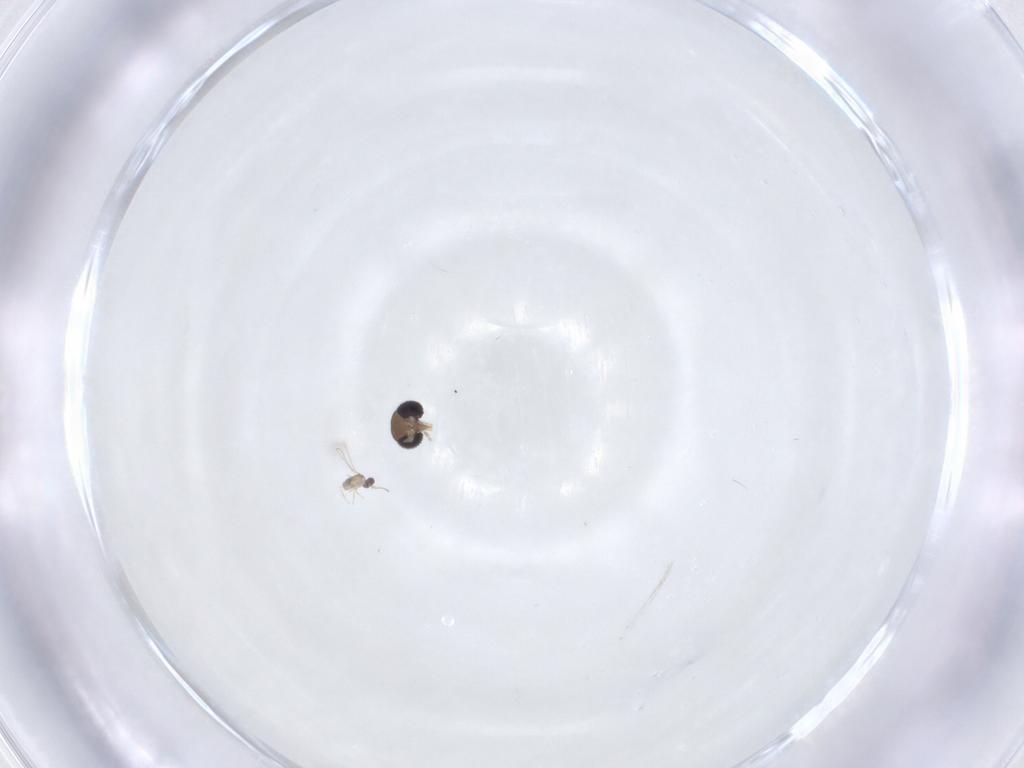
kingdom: Animalia
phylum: Arthropoda
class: Insecta
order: Diptera
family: Psychodidae
